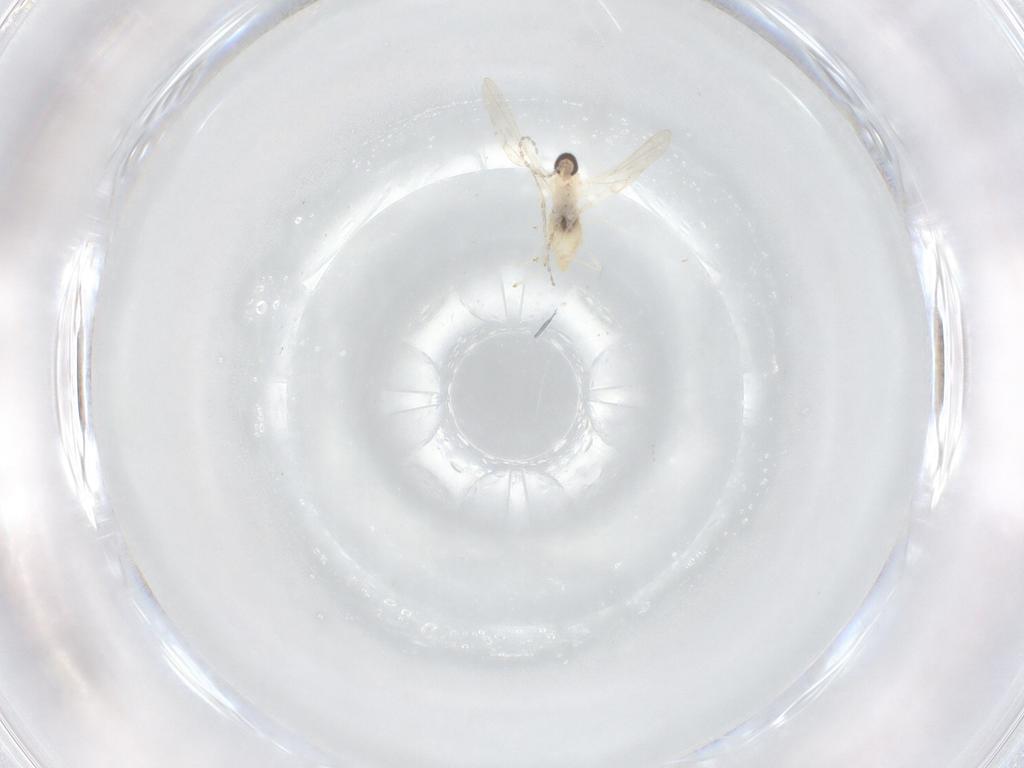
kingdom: Animalia
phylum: Arthropoda
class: Insecta
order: Diptera
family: Cecidomyiidae
